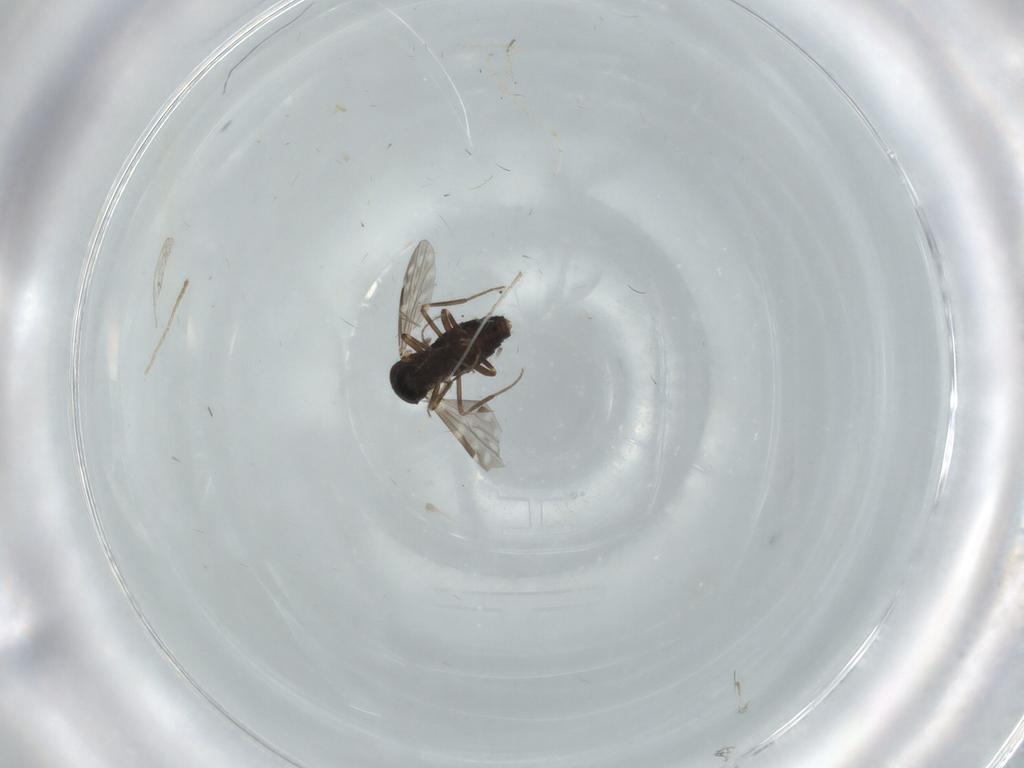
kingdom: Animalia
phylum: Arthropoda
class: Insecta
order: Diptera
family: Ceratopogonidae
